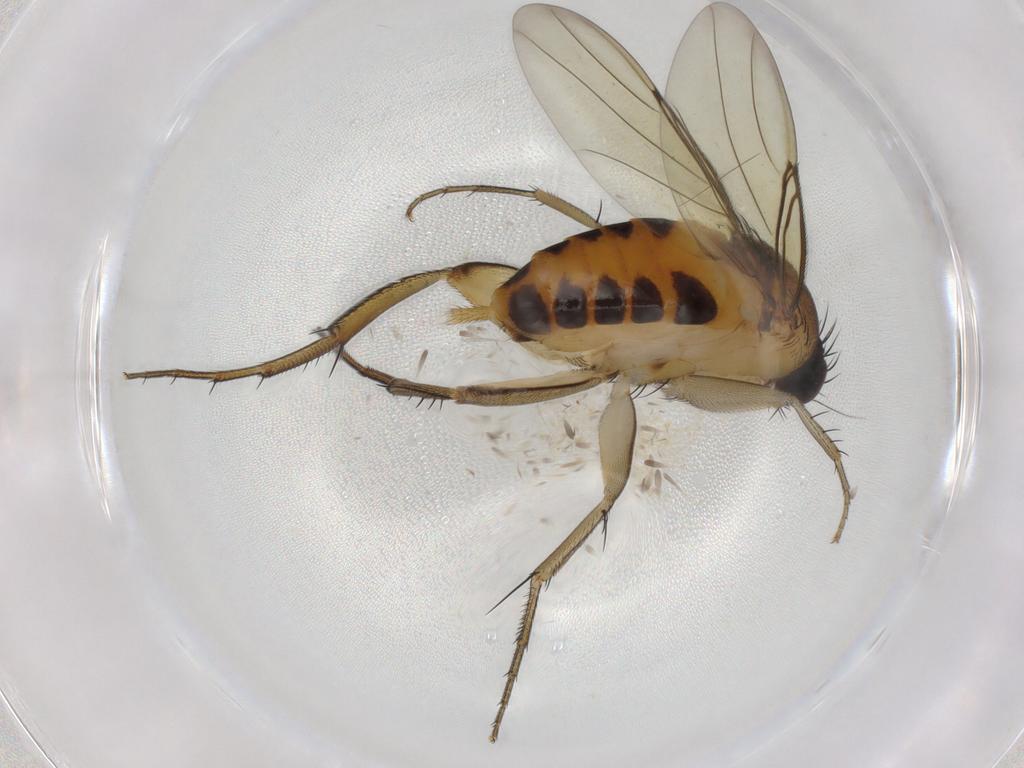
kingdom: Animalia
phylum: Arthropoda
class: Insecta
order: Diptera
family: Phoridae
